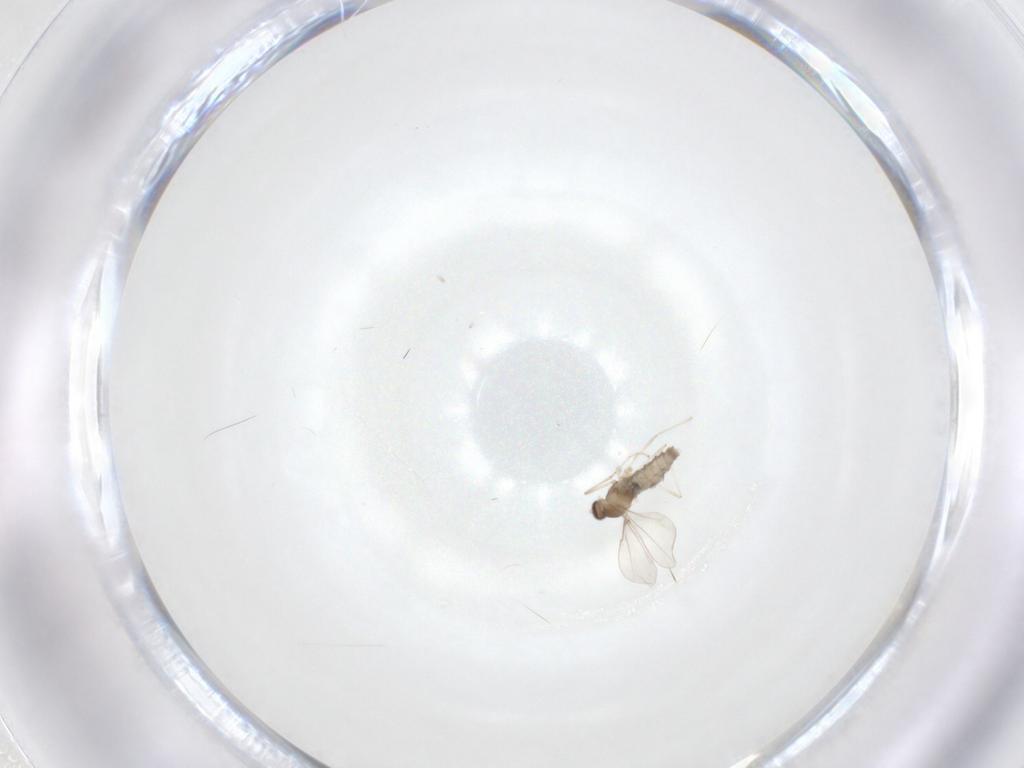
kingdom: Animalia
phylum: Arthropoda
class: Insecta
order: Diptera
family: Cecidomyiidae
